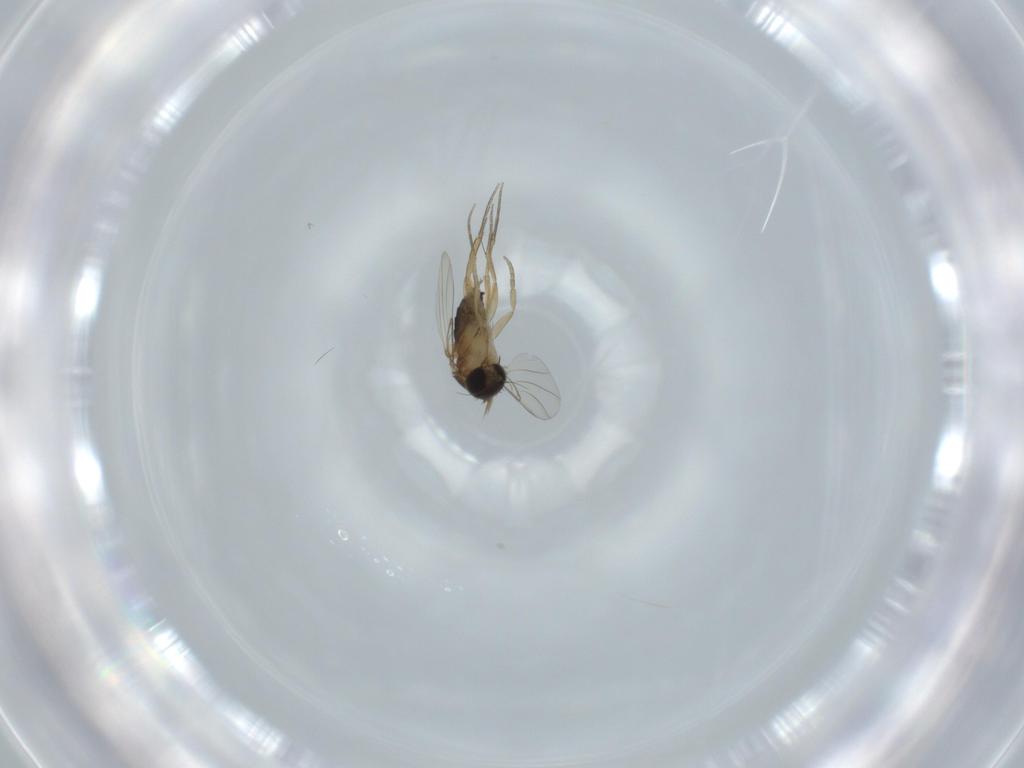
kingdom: Animalia
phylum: Arthropoda
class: Insecta
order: Diptera
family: Phoridae
